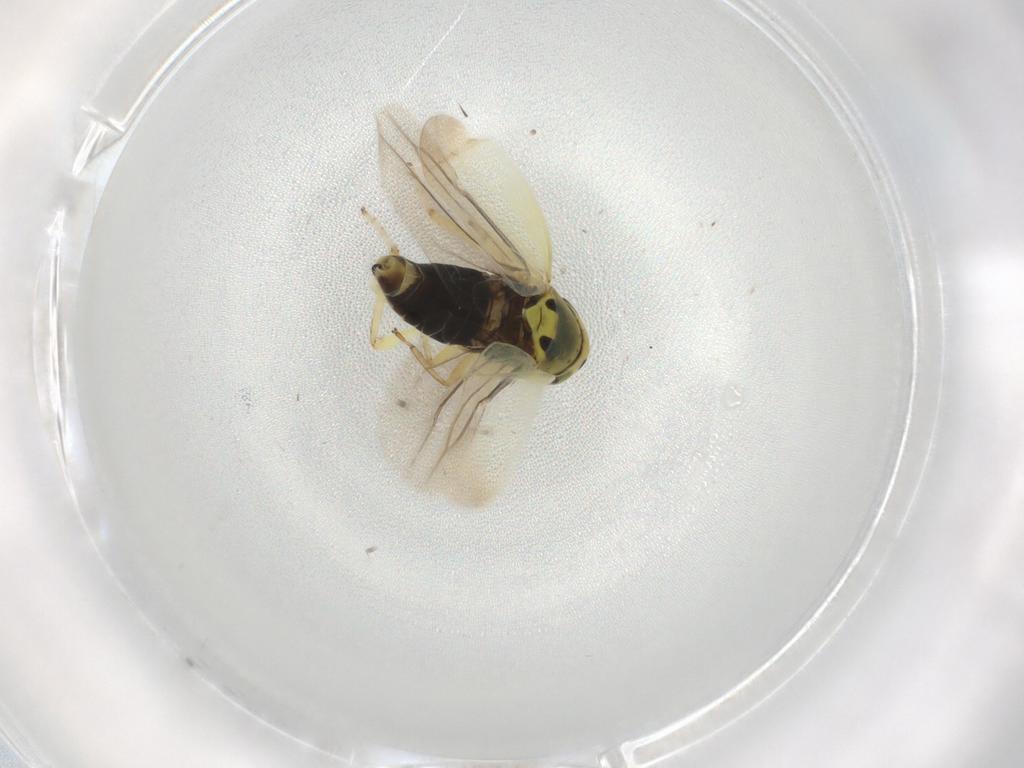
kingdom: Animalia
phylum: Arthropoda
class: Insecta
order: Hemiptera
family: Cicadellidae
